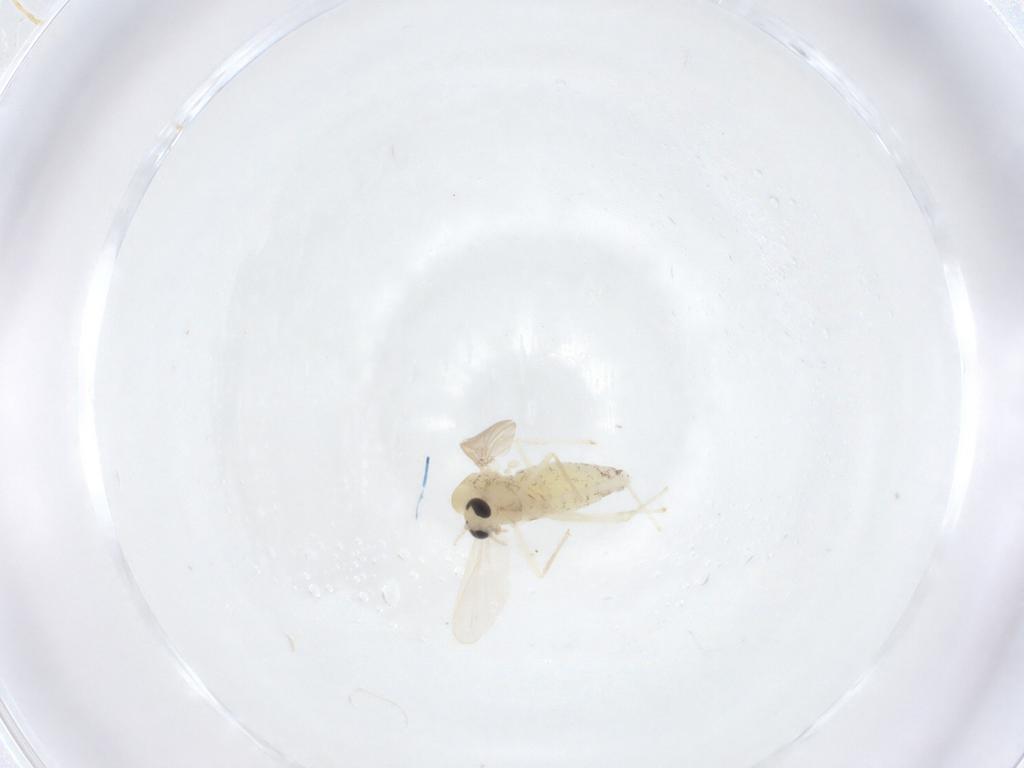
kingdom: Animalia
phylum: Arthropoda
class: Insecta
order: Diptera
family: Chironomidae
